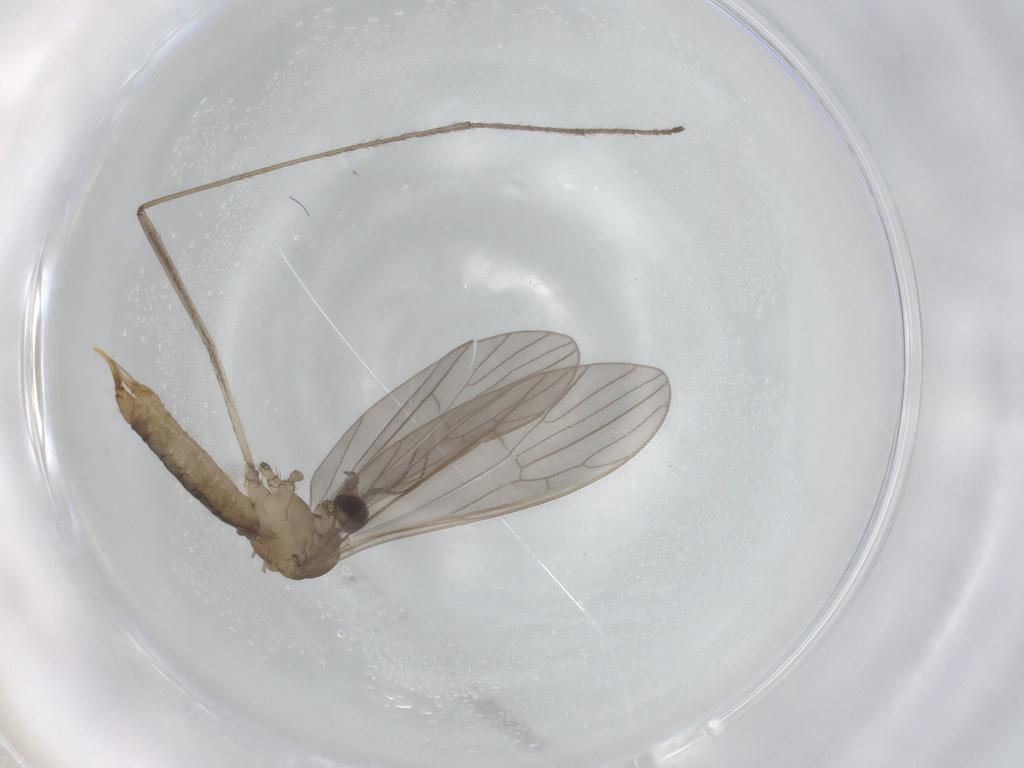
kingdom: Animalia
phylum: Arthropoda
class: Insecta
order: Diptera
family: Limoniidae
